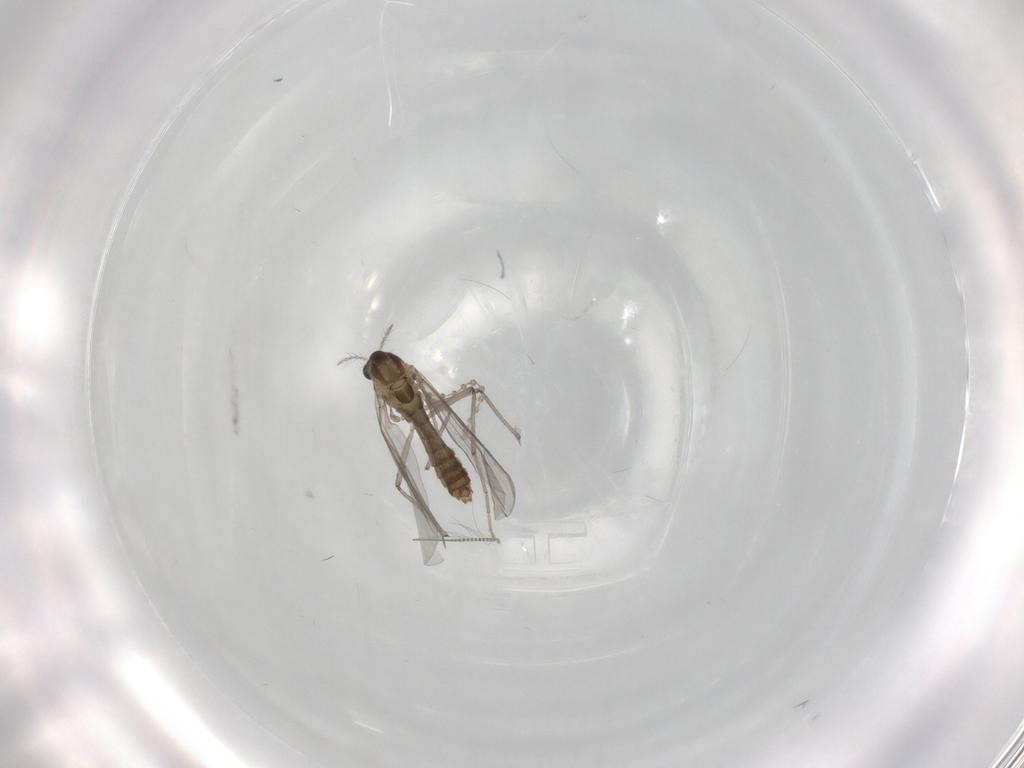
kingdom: Animalia
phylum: Arthropoda
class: Insecta
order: Diptera
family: Chironomidae
